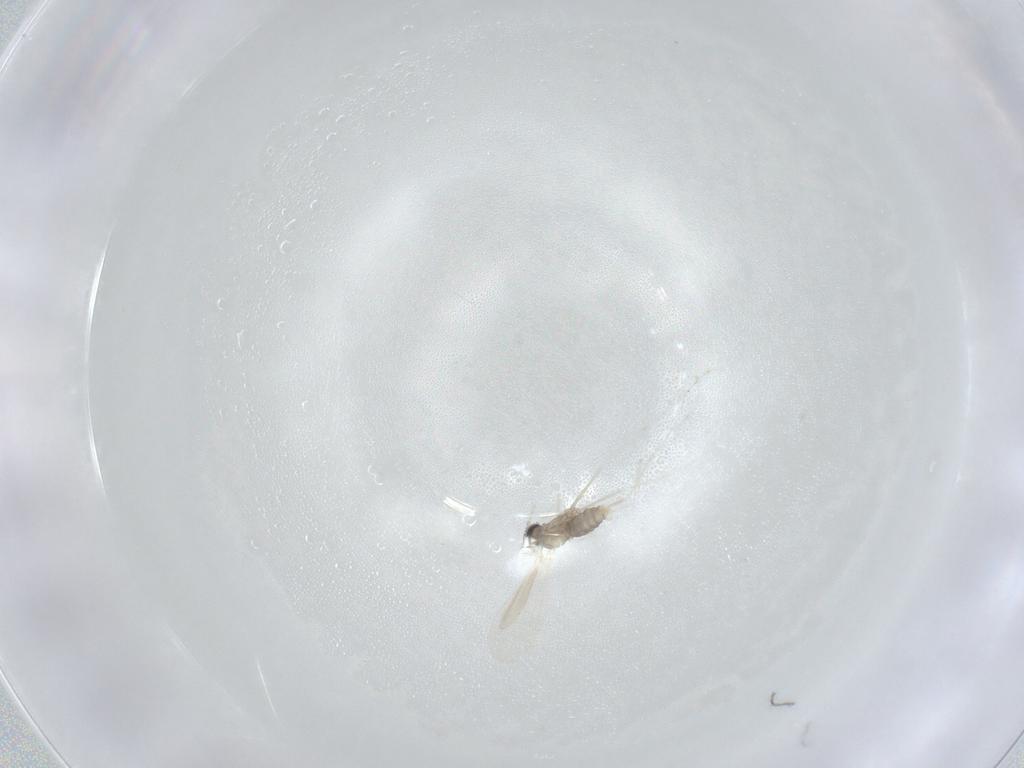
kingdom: Animalia
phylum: Arthropoda
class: Insecta
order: Diptera
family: Cecidomyiidae
